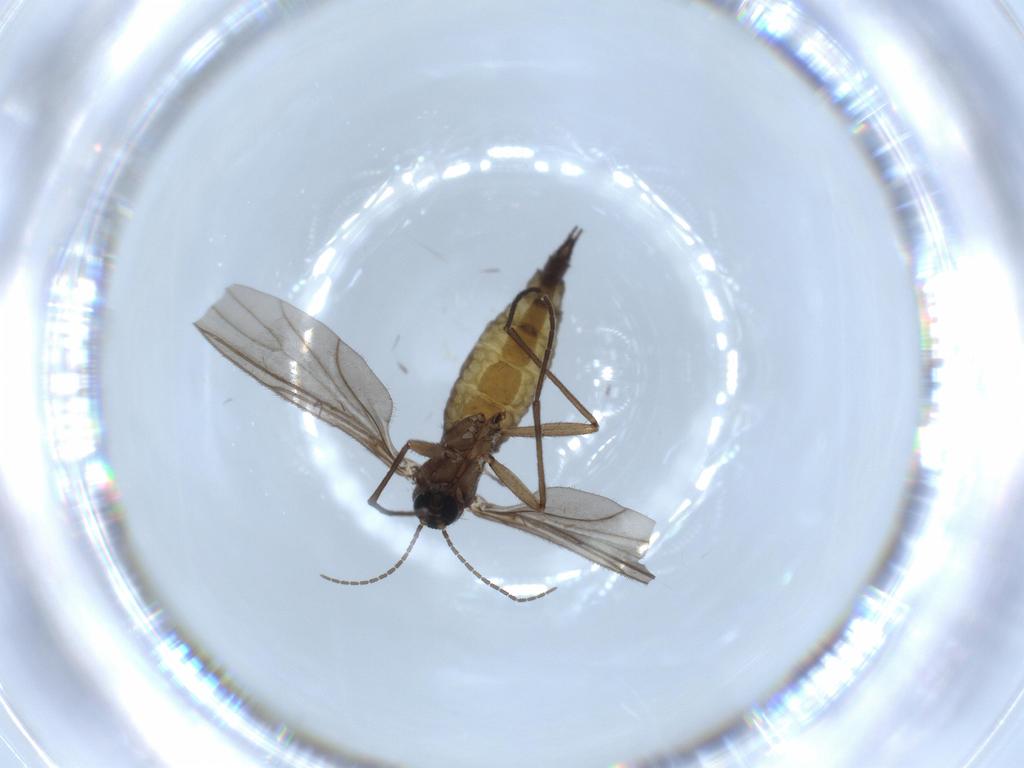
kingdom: Animalia
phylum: Arthropoda
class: Insecta
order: Diptera
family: Sciaridae
